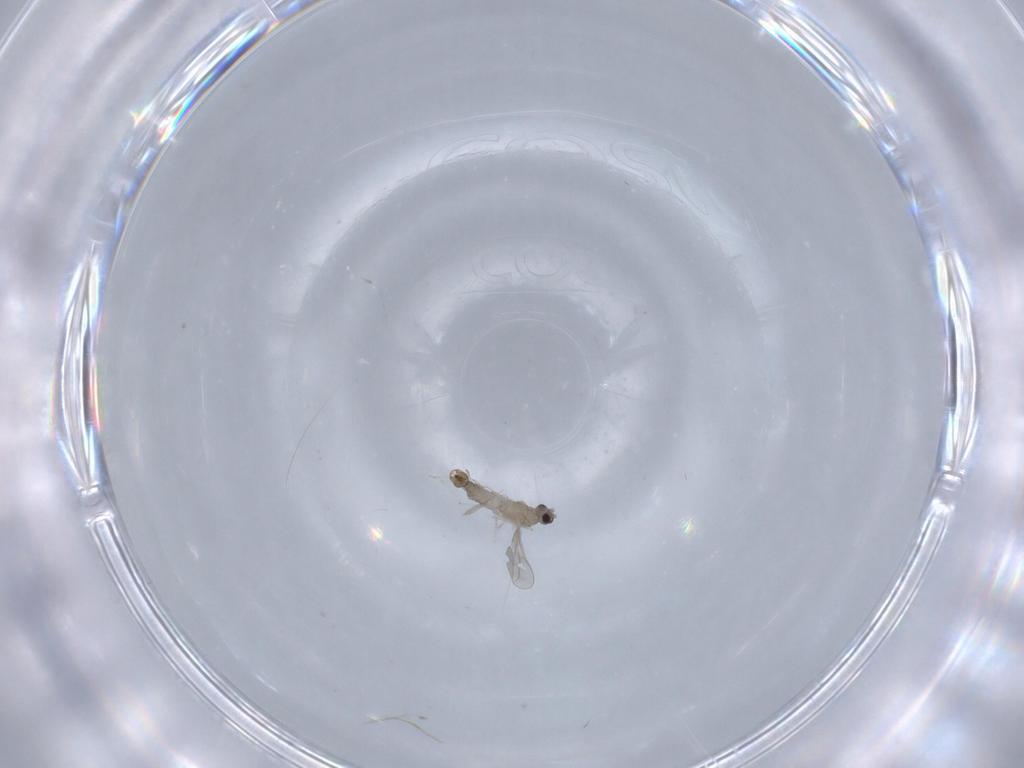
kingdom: Animalia
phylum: Arthropoda
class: Insecta
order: Diptera
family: Cecidomyiidae
